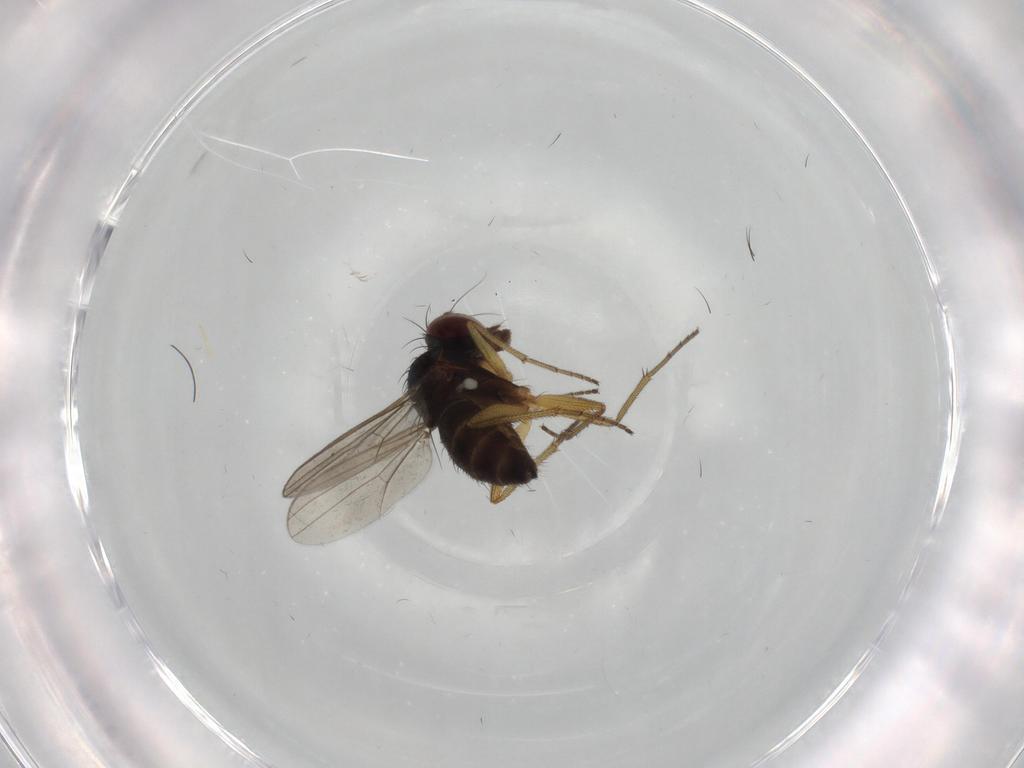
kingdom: Animalia
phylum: Arthropoda
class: Insecta
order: Diptera
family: Dolichopodidae
